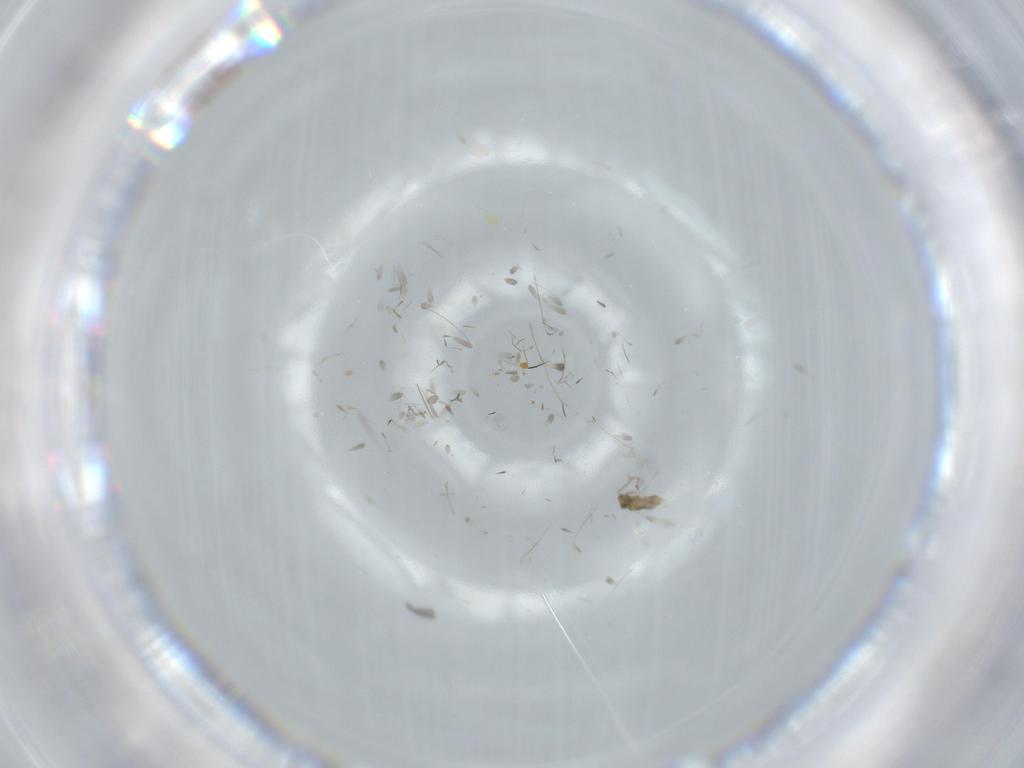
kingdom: Animalia
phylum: Arthropoda
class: Insecta
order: Hymenoptera
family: Aphelinidae
